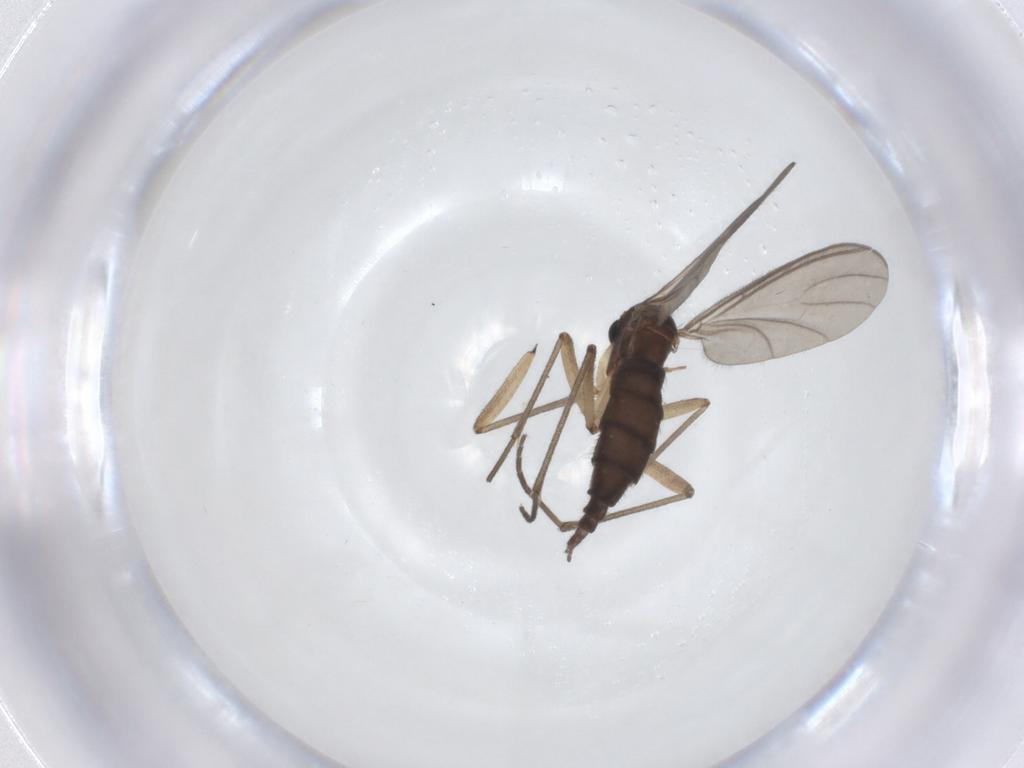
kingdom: Animalia
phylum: Arthropoda
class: Insecta
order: Diptera
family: Sciaridae
